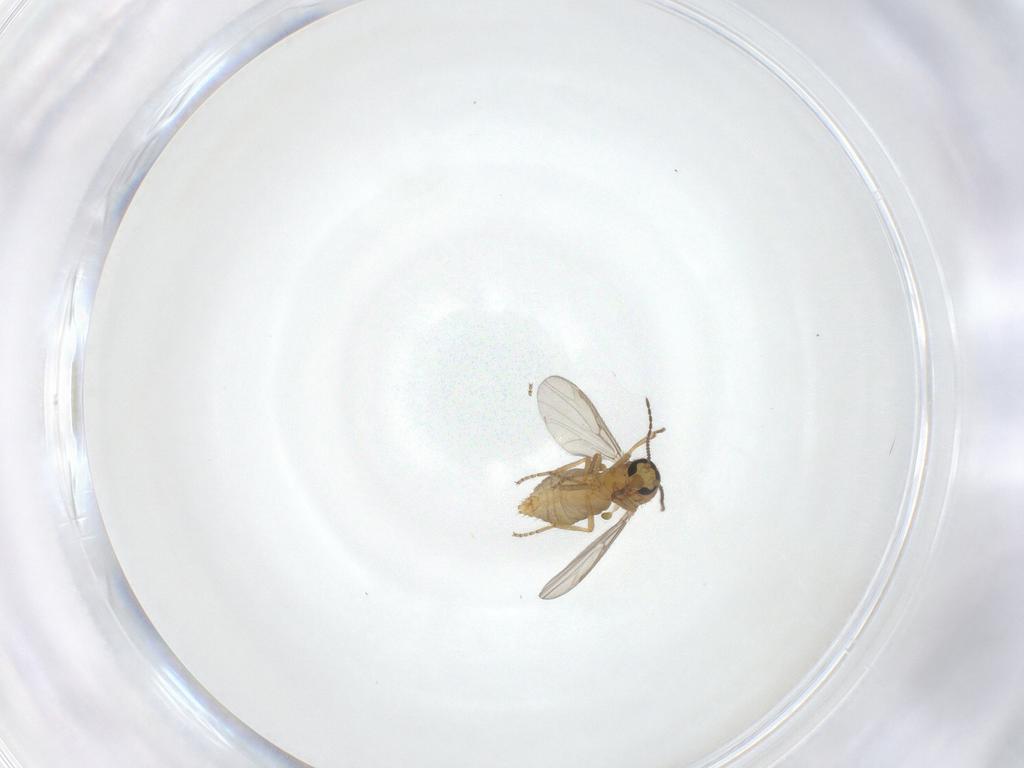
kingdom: Animalia
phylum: Arthropoda
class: Insecta
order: Diptera
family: Ceratopogonidae
